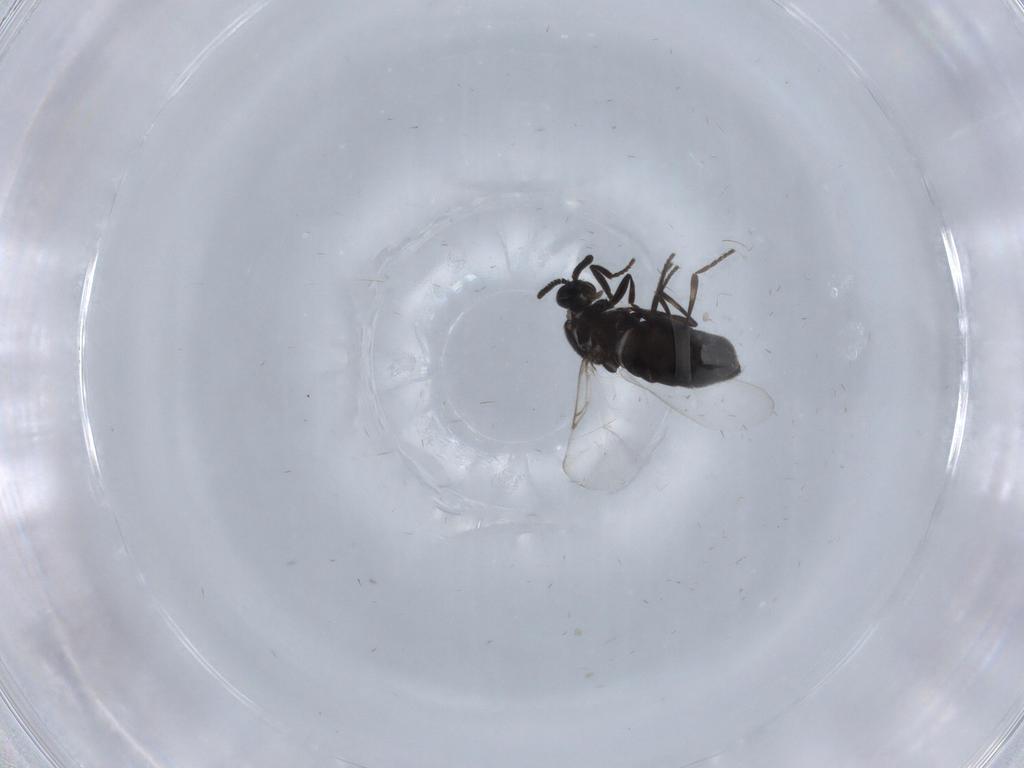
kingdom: Animalia
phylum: Arthropoda
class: Insecta
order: Diptera
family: Scatopsidae
